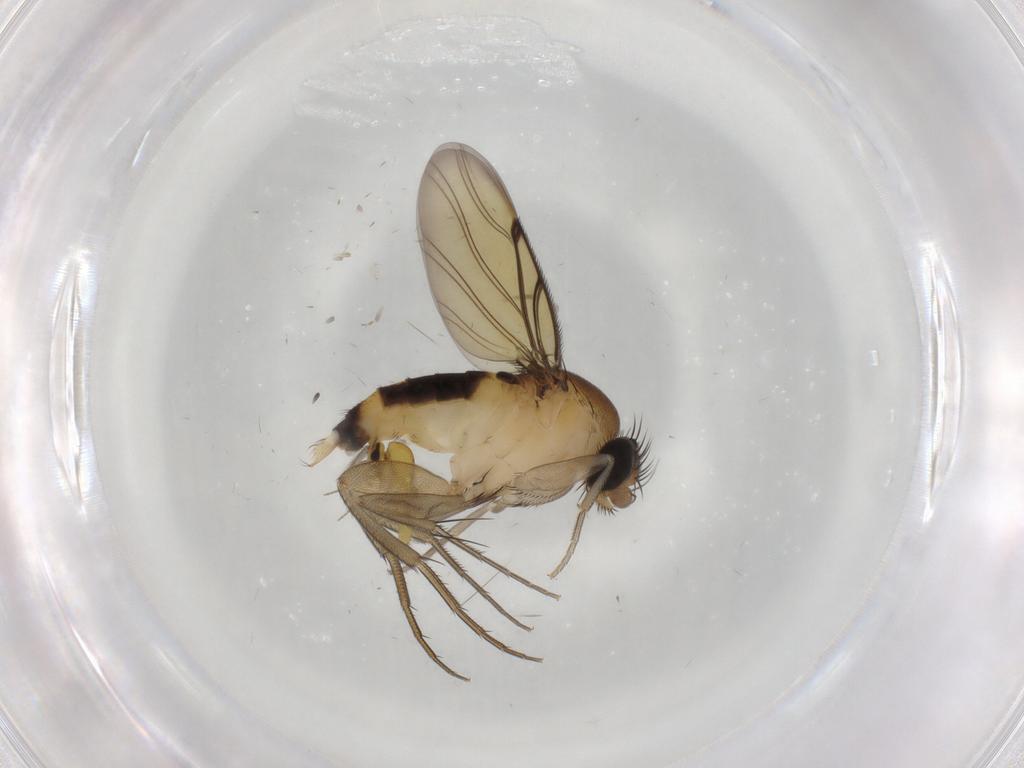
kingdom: Animalia
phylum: Arthropoda
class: Insecta
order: Diptera
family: Ceratopogonidae
